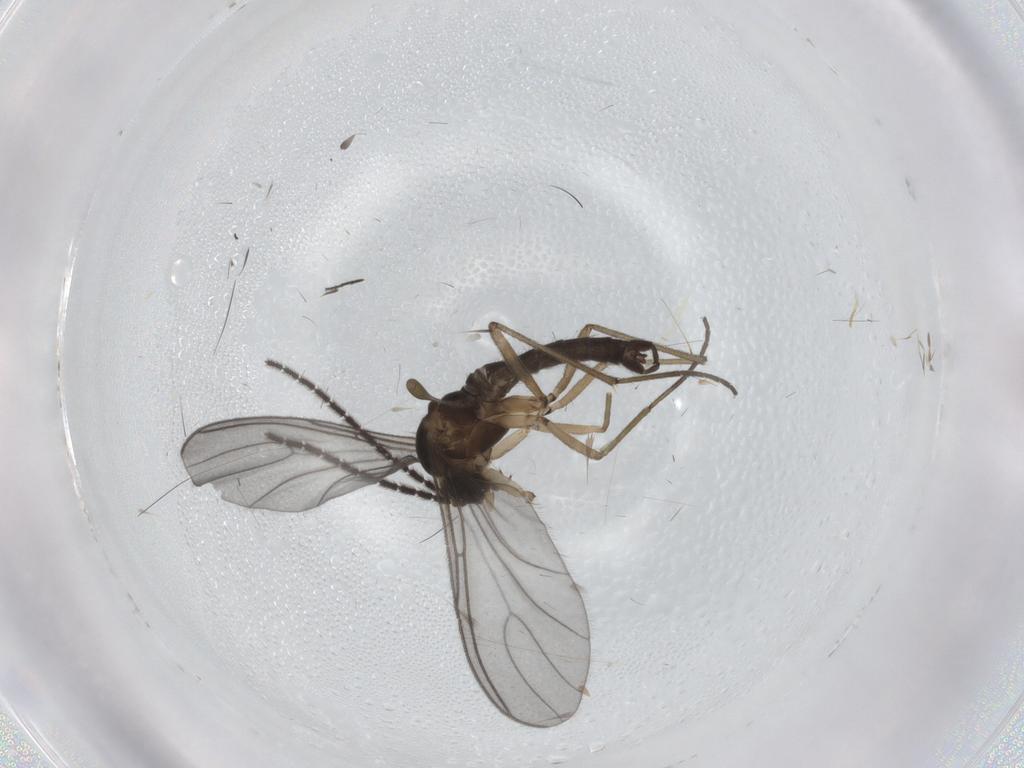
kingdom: Animalia
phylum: Arthropoda
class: Insecta
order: Diptera
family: Sciaridae
